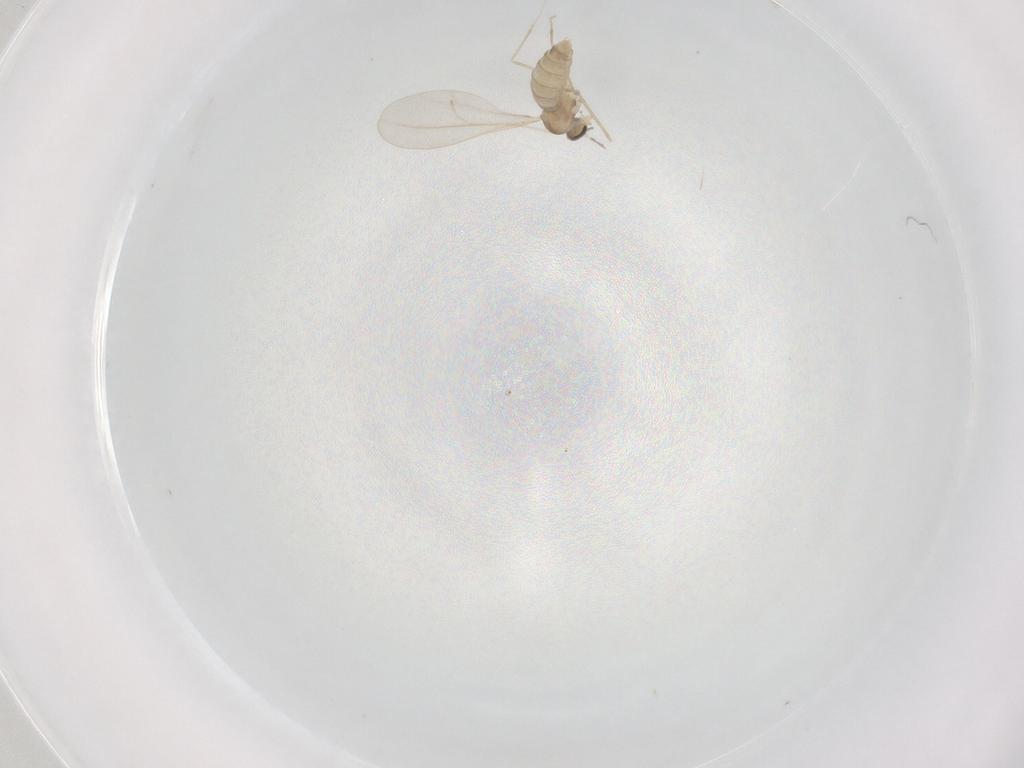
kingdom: Animalia
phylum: Arthropoda
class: Insecta
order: Diptera
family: Cecidomyiidae
